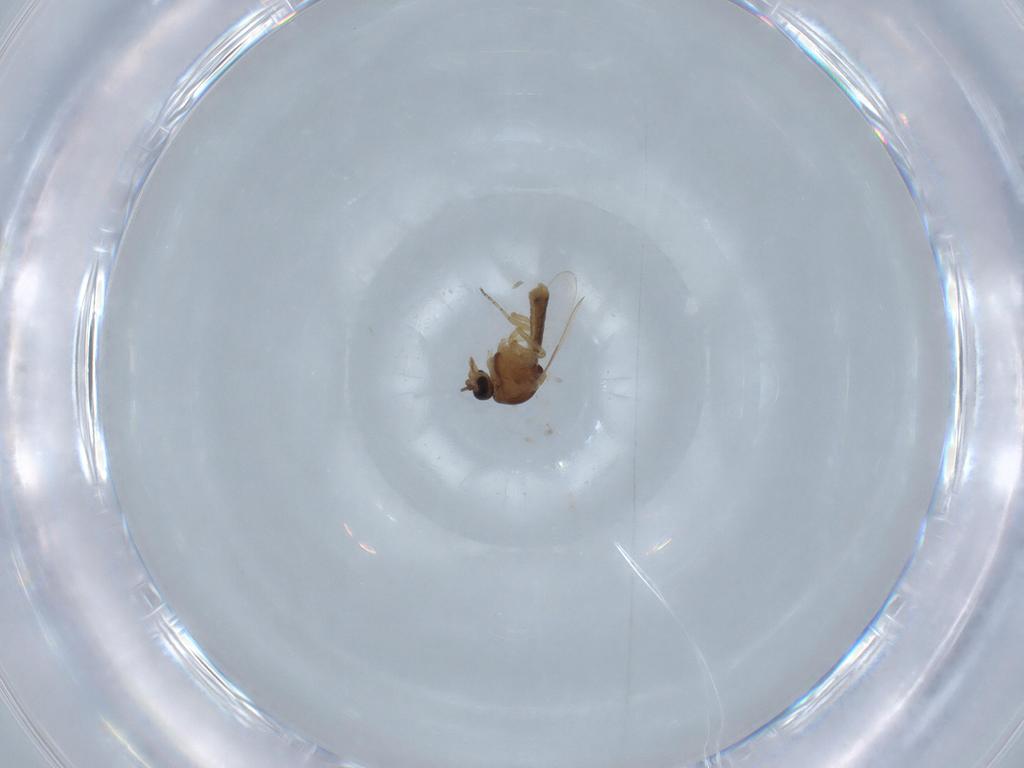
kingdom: Animalia
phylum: Arthropoda
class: Insecta
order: Diptera
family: Ceratopogonidae
